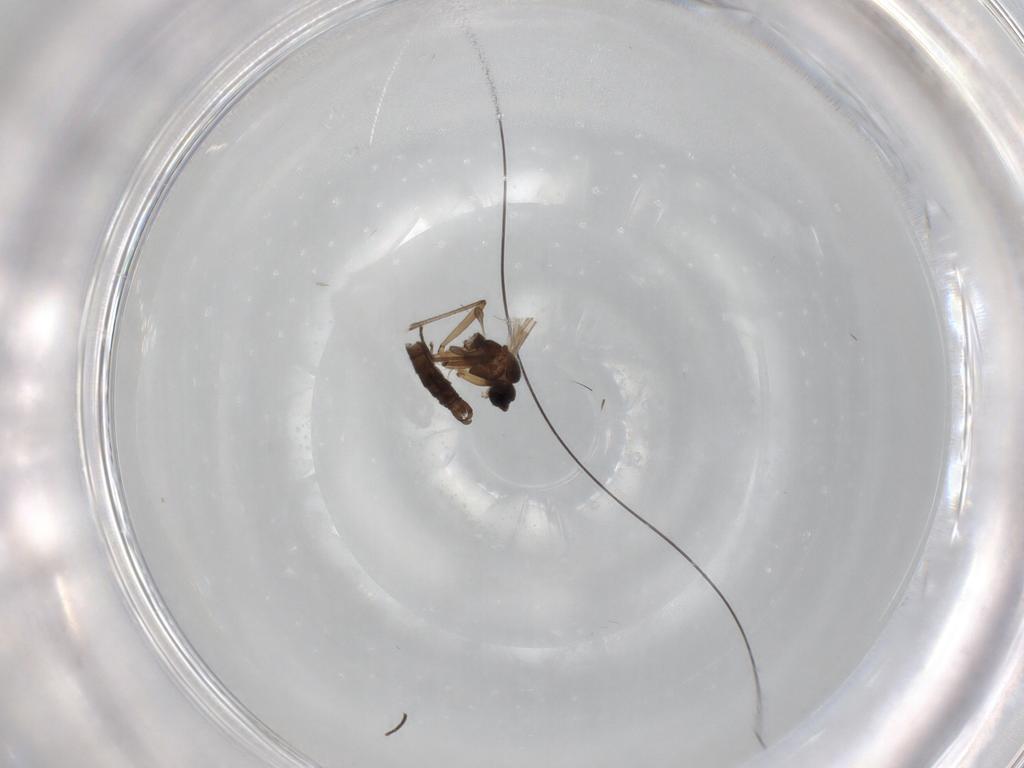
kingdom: Animalia
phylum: Arthropoda
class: Insecta
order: Diptera
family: Sciaridae
